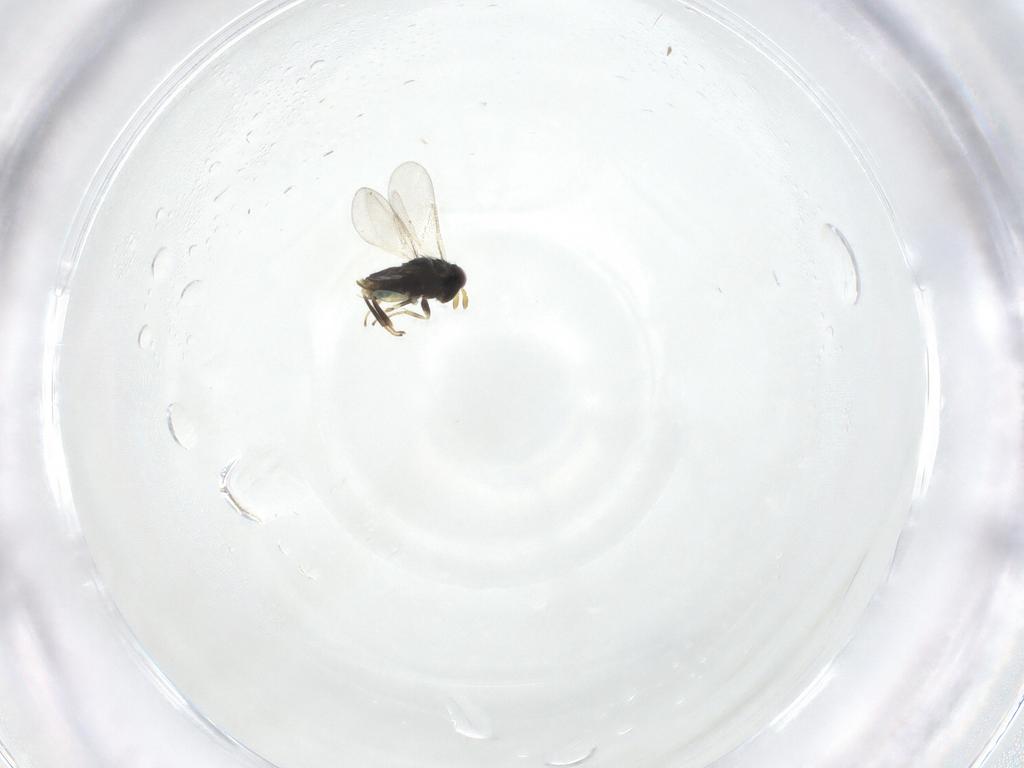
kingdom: Animalia
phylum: Arthropoda
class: Insecta
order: Hymenoptera
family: Aphelinidae
